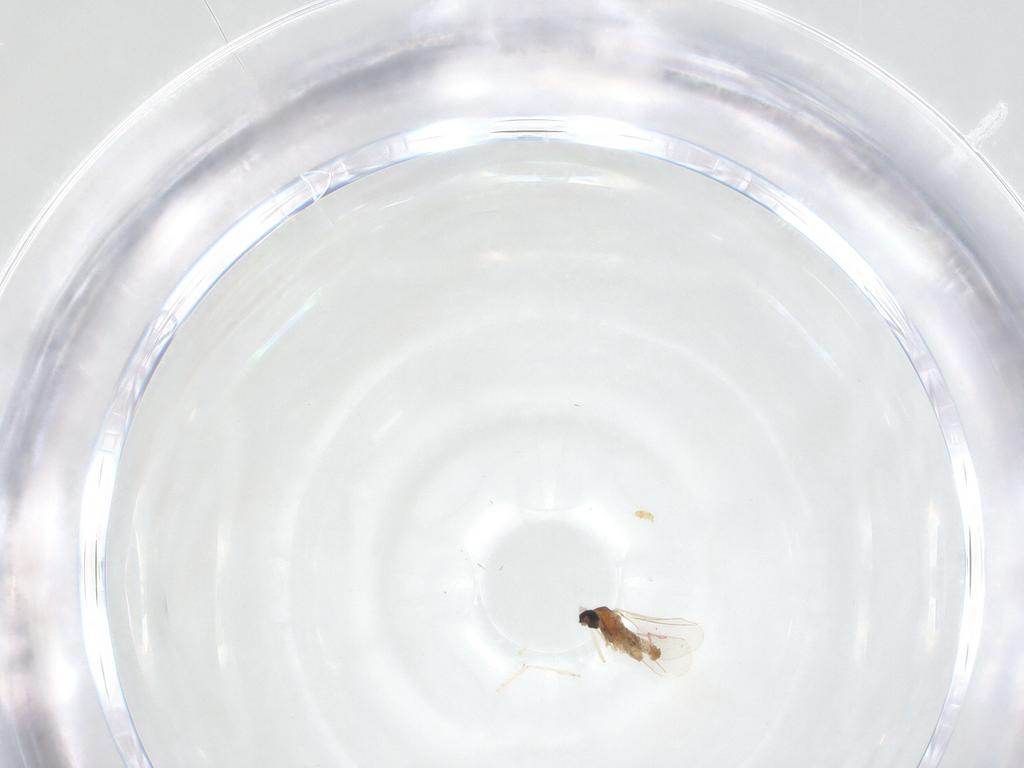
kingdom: Animalia
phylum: Arthropoda
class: Insecta
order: Diptera
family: Cecidomyiidae
